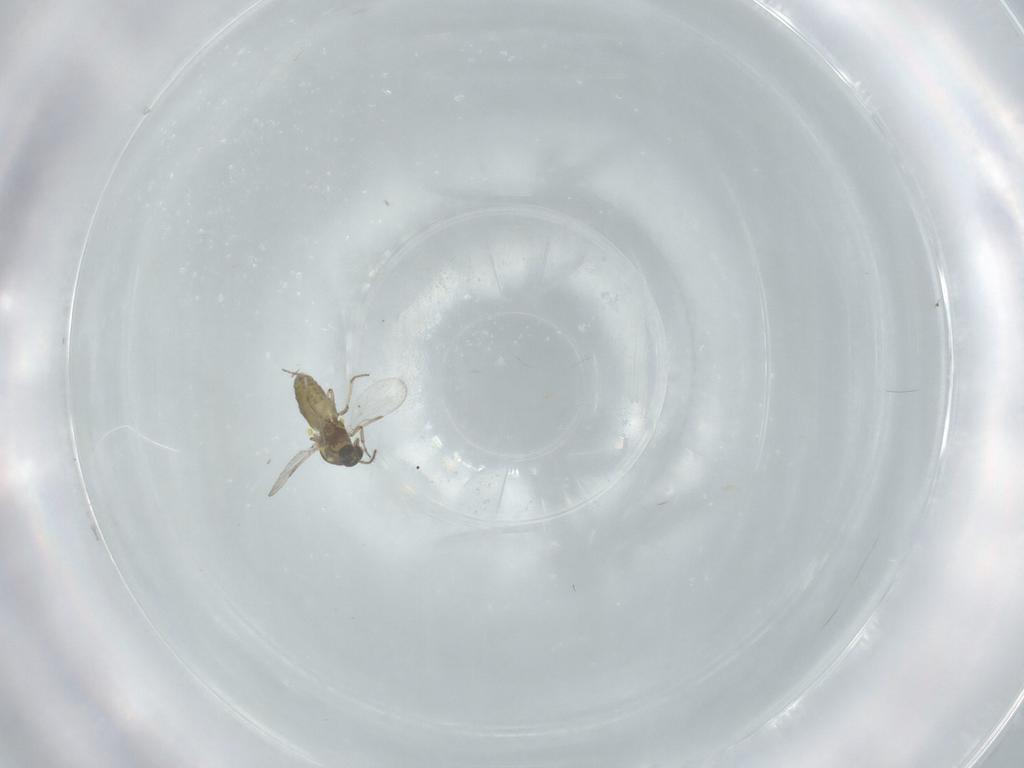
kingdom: Animalia
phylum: Arthropoda
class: Insecta
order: Diptera
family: Ceratopogonidae
